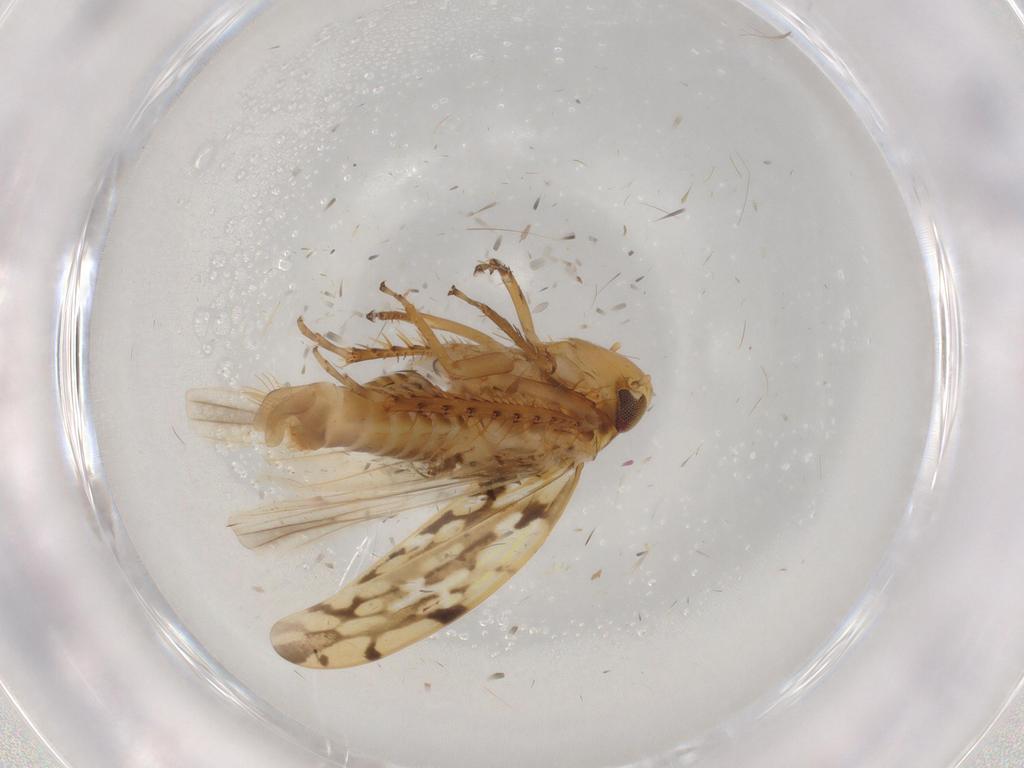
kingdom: Animalia
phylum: Arthropoda
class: Insecta
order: Hemiptera
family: Cicadellidae
